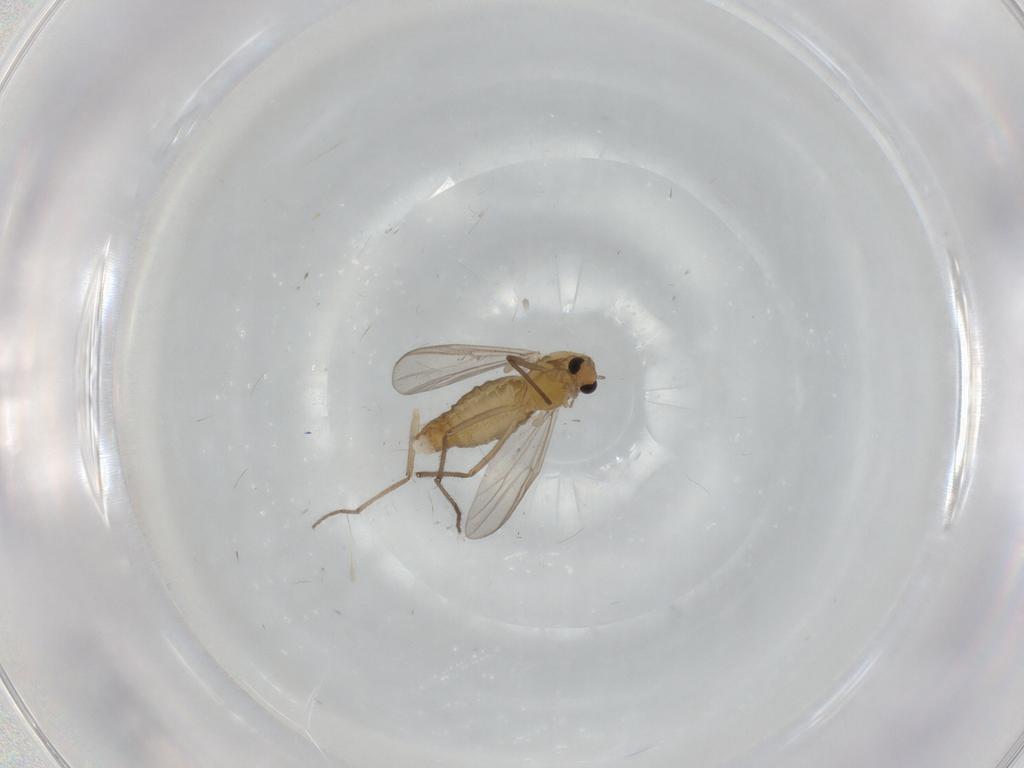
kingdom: Animalia
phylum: Arthropoda
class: Insecta
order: Diptera
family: Chironomidae
